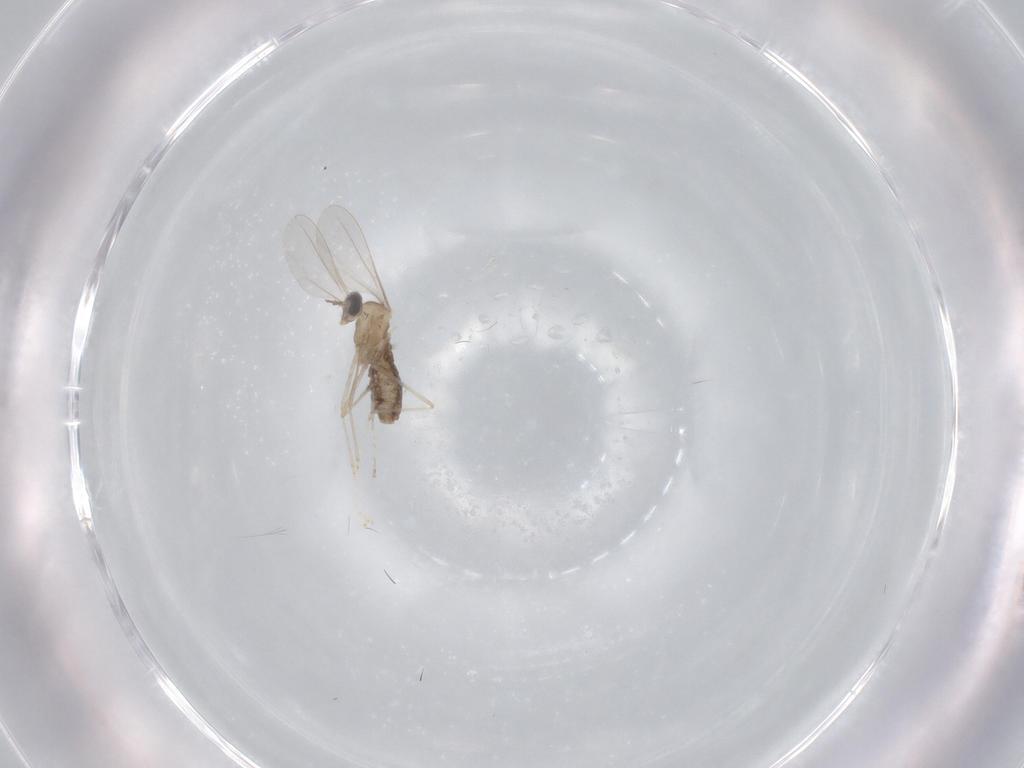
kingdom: Animalia
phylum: Arthropoda
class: Insecta
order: Diptera
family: Cecidomyiidae
